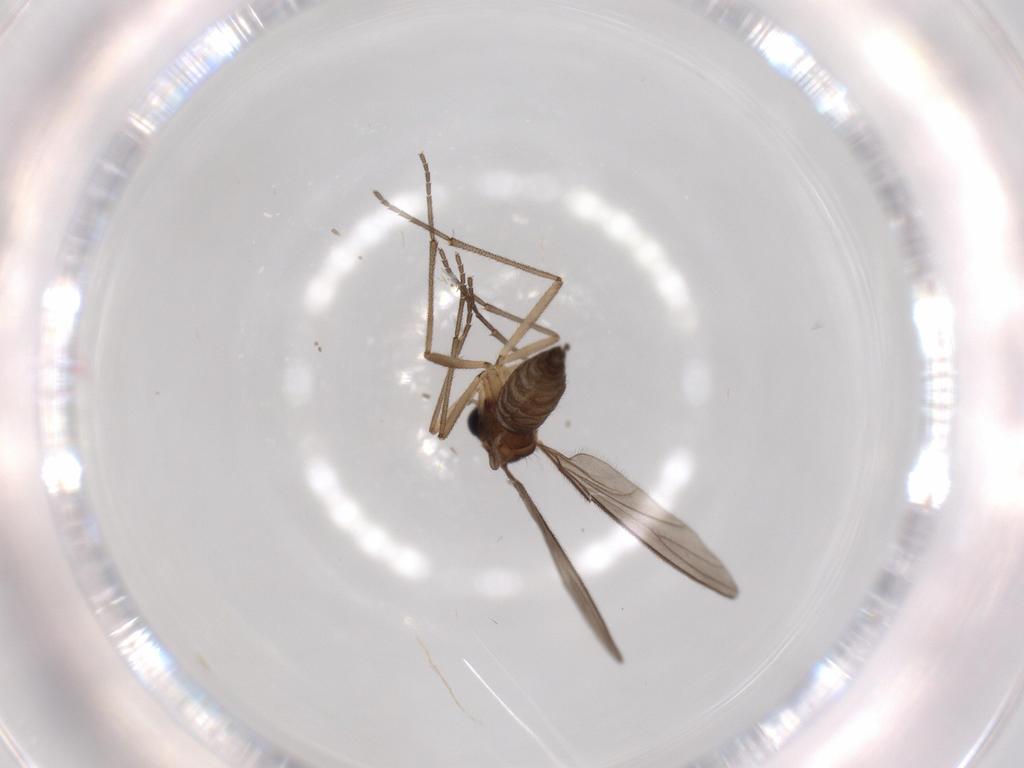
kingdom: Animalia
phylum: Arthropoda
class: Insecta
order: Diptera
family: Sciaridae
